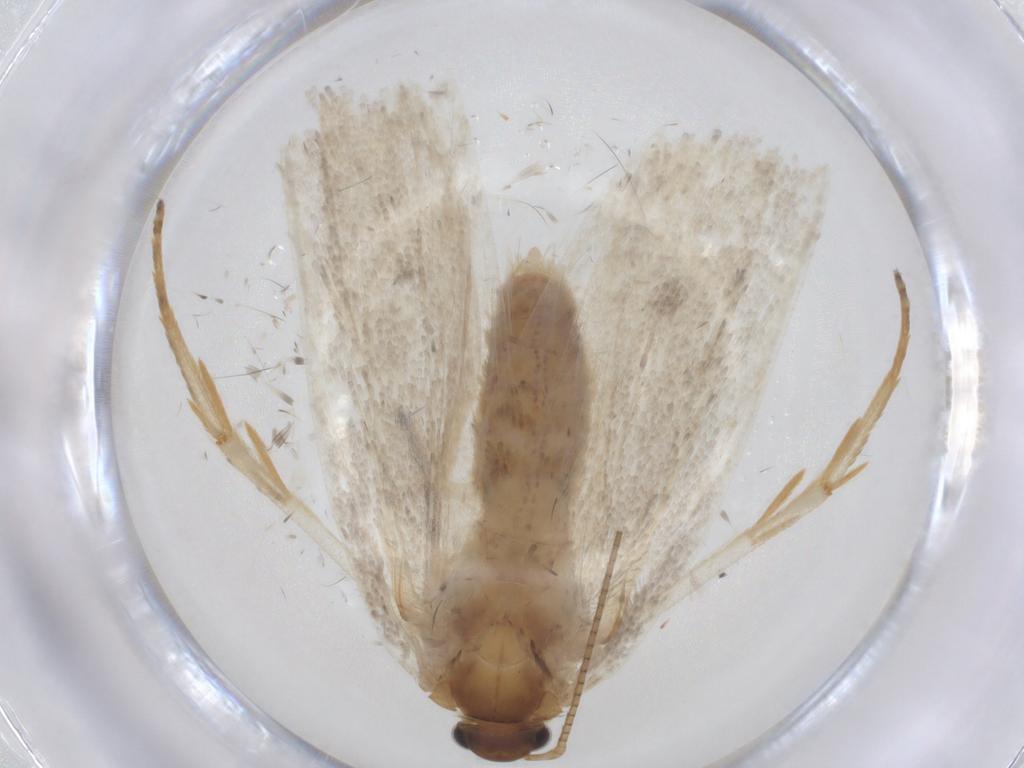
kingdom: Animalia
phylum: Arthropoda
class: Insecta
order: Lepidoptera
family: Depressariidae
